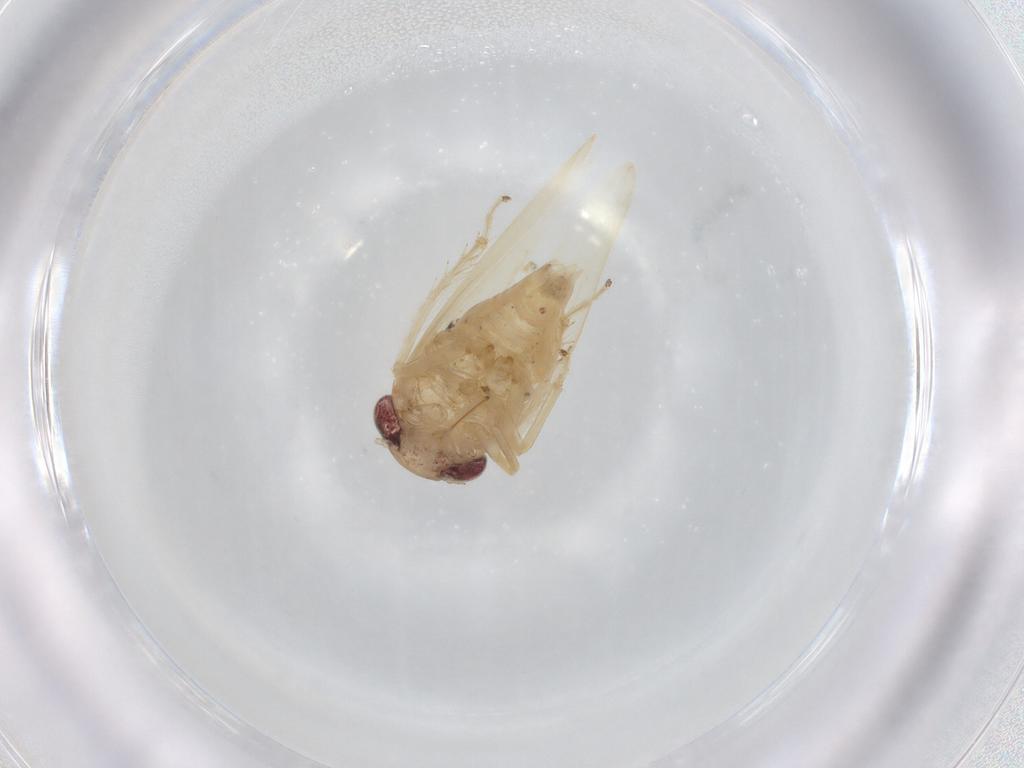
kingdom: Animalia
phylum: Arthropoda
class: Insecta
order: Hemiptera
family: Cicadellidae
